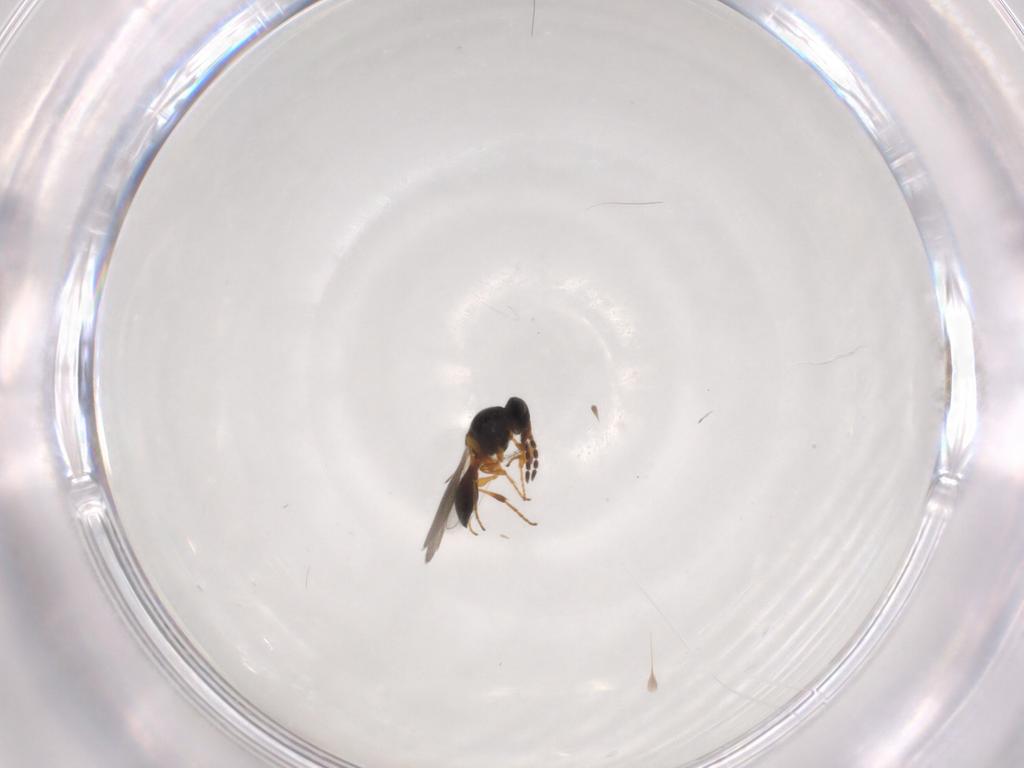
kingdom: Animalia
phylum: Arthropoda
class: Insecta
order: Hymenoptera
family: Platygastridae
